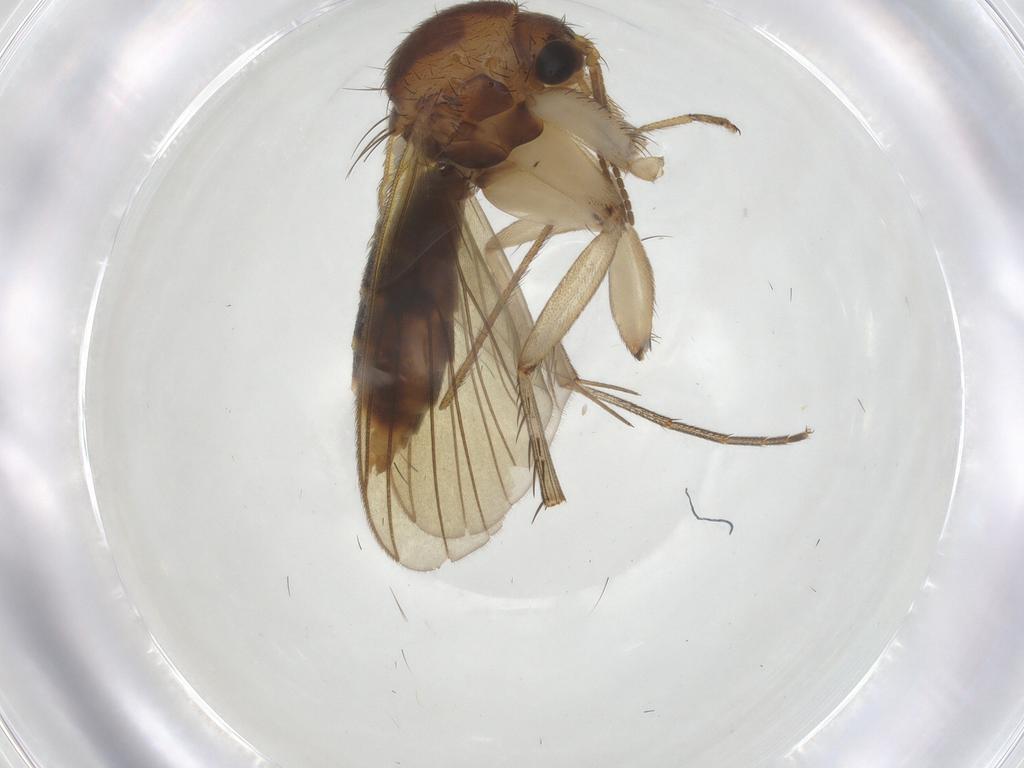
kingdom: Animalia
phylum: Arthropoda
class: Insecta
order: Diptera
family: Mycetophilidae
